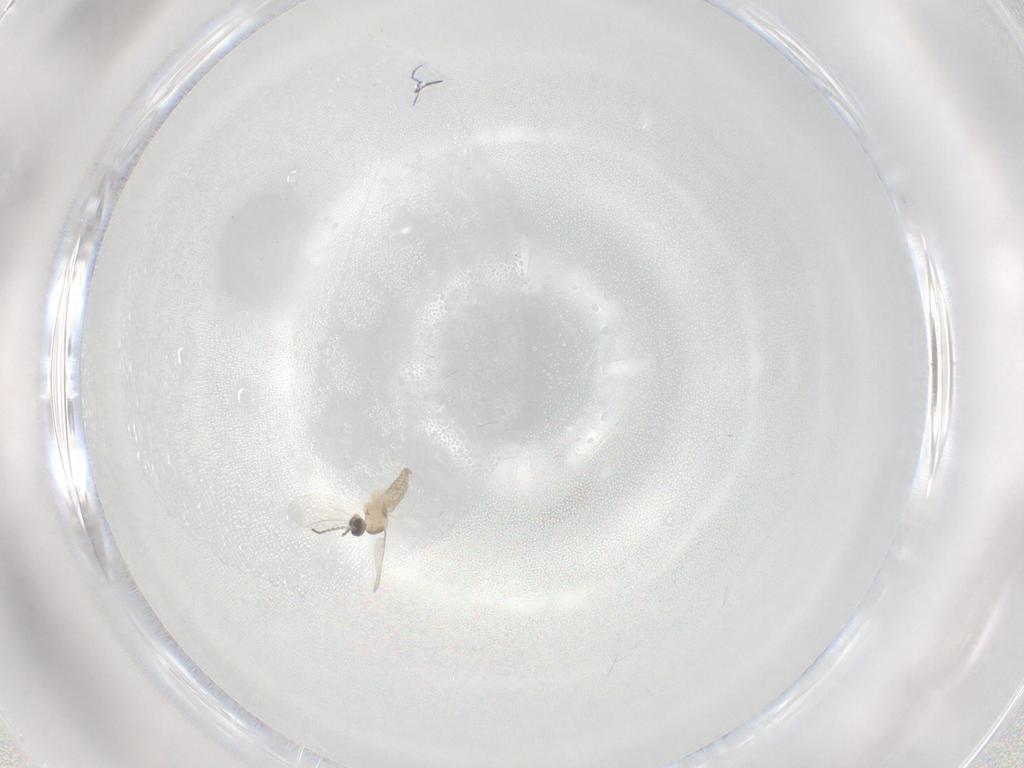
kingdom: Animalia
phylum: Arthropoda
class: Insecta
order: Diptera
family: Cecidomyiidae
